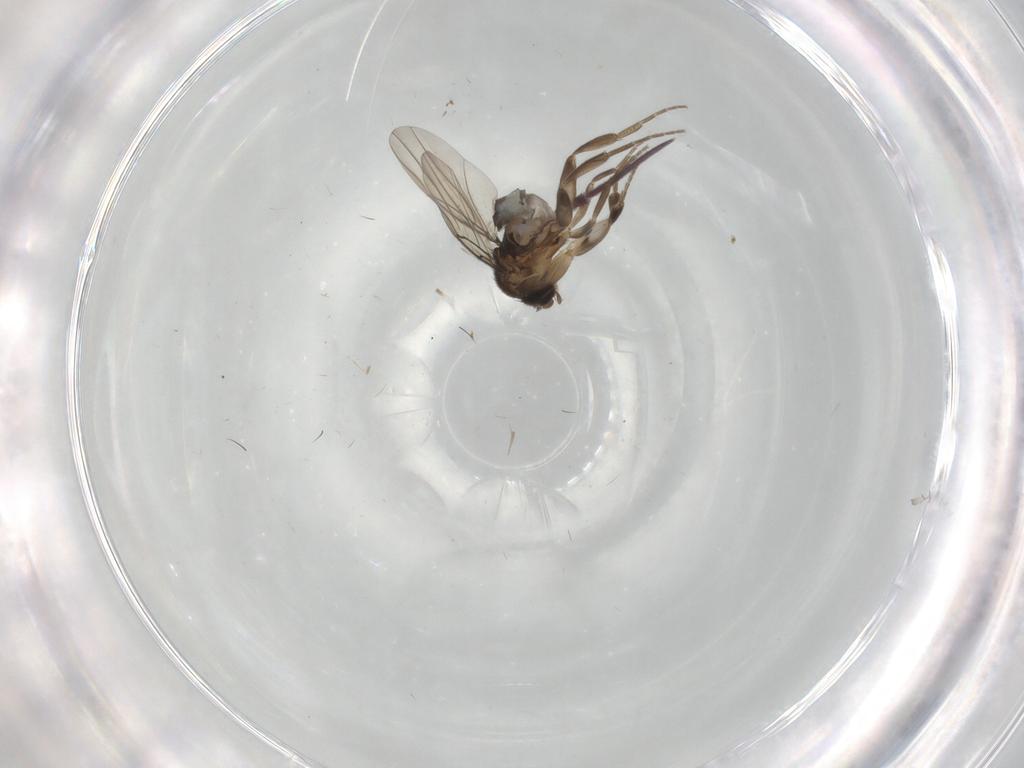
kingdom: Animalia
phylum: Arthropoda
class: Insecta
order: Diptera
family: Phoridae
